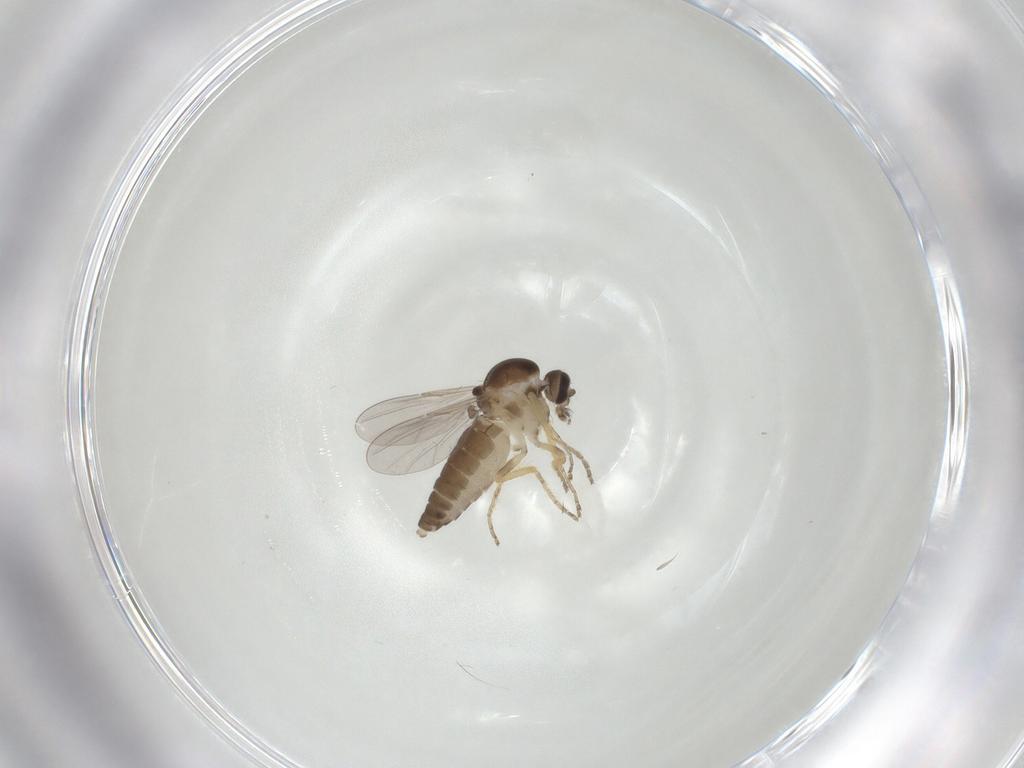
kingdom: Animalia
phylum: Arthropoda
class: Insecta
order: Diptera
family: Ceratopogonidae
